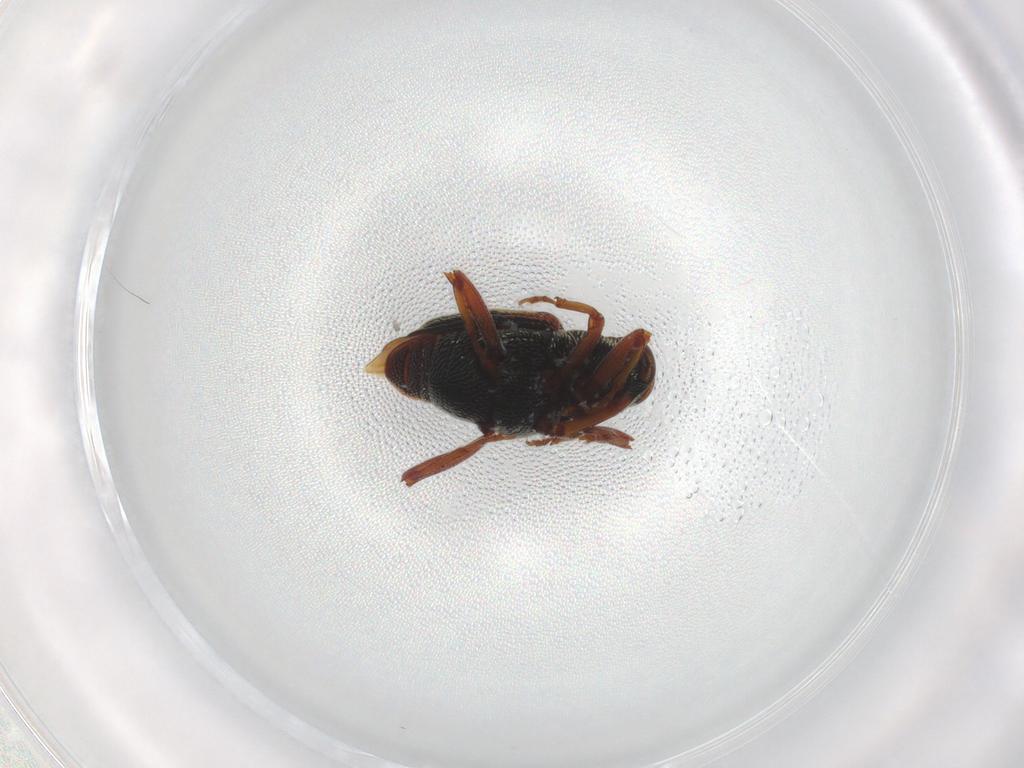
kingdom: Animalia
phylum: Arthropoda
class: Insecta
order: Coleoptera
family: Curculionidae
